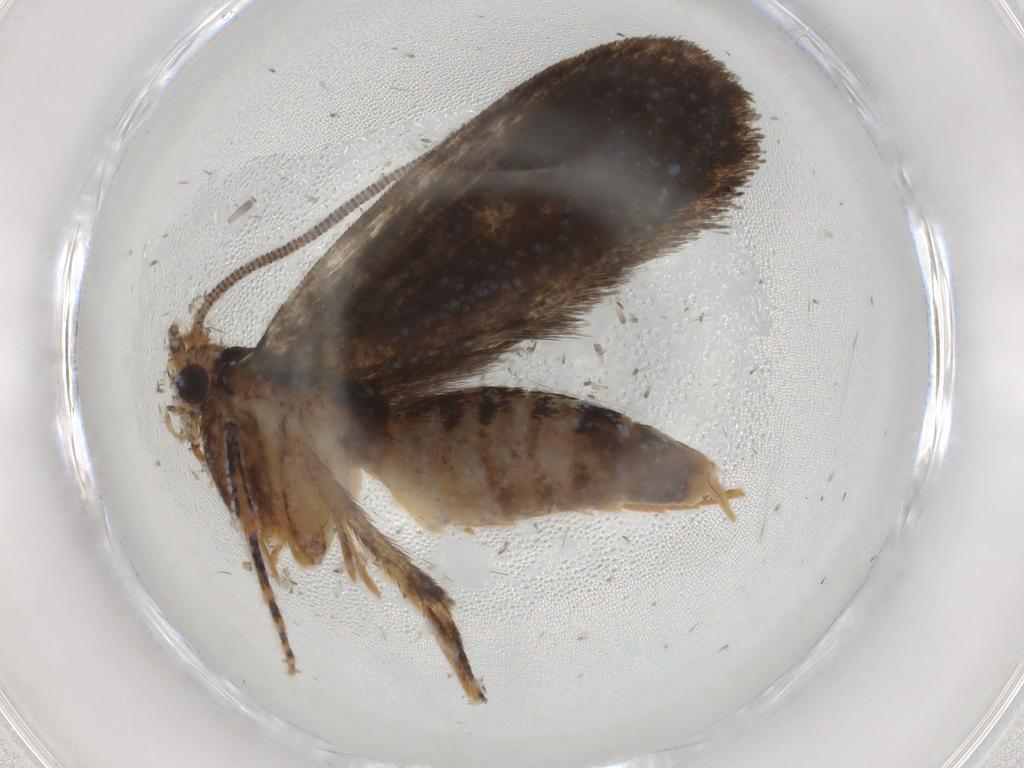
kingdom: Animalia
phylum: Arthropoda
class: Insecta
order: Lepidoptera
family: Tineidae
